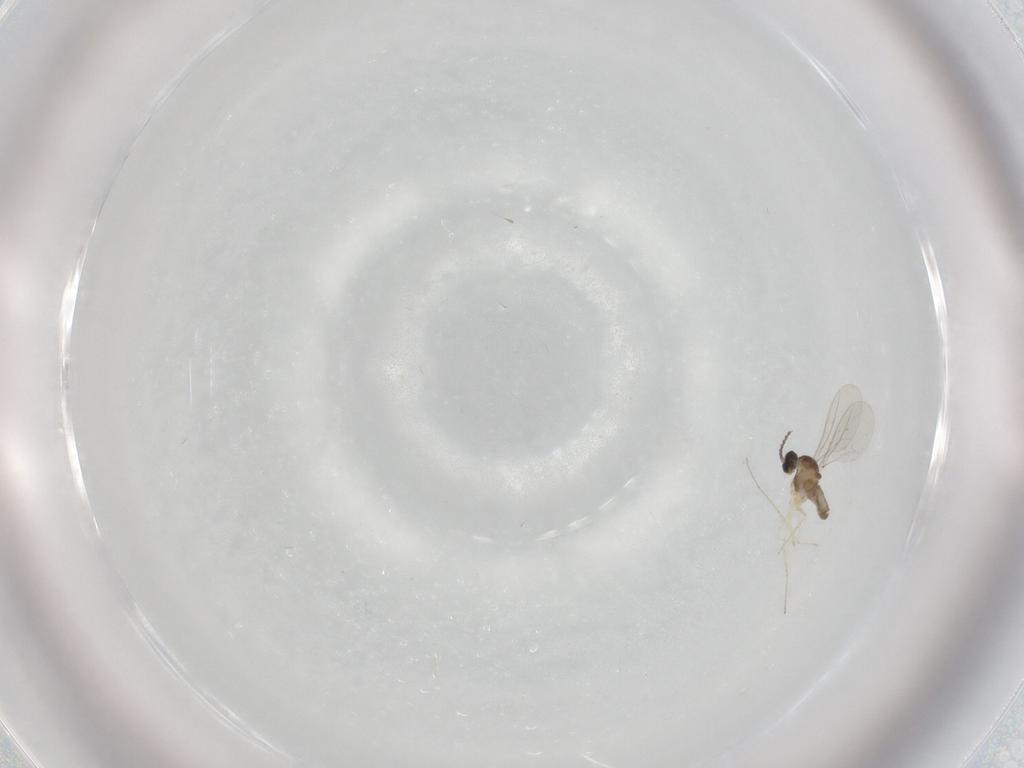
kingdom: Animalia
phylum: Arthropoda
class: Insecta
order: Diptera
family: Cecidomyiidae
